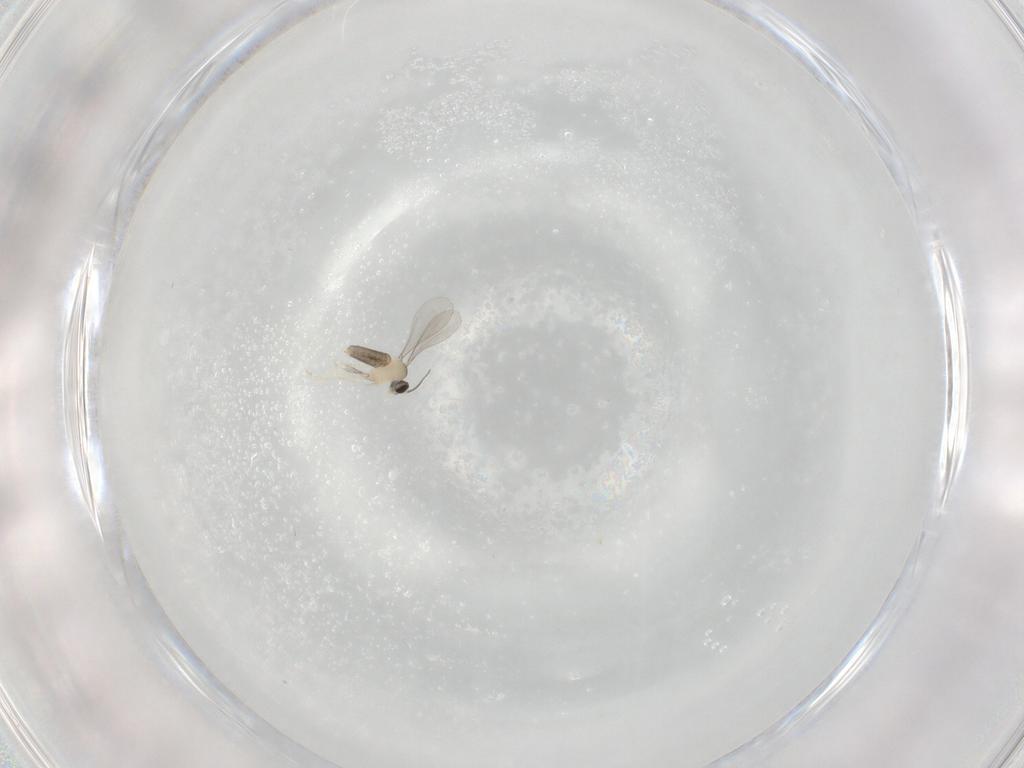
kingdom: Animalia
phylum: Arthropoda
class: Insecta
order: Diptera
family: Cecidomyiidae
